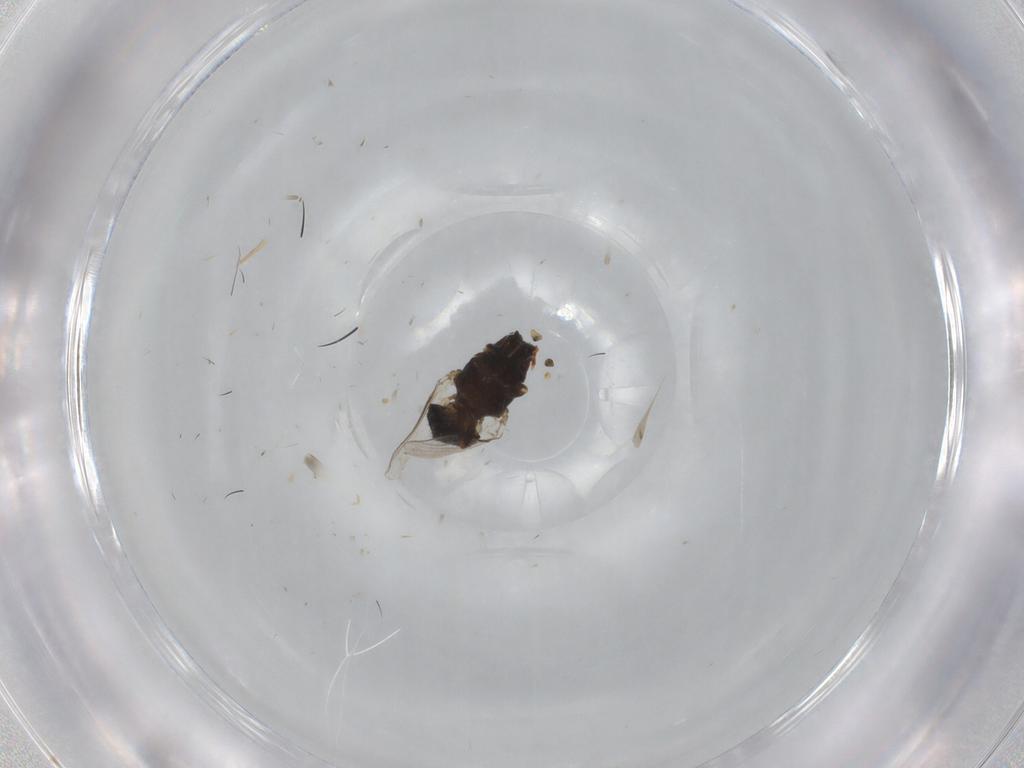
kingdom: Animalia
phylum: Arthropoda
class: Insecta
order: Diptera
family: Milichiidae
